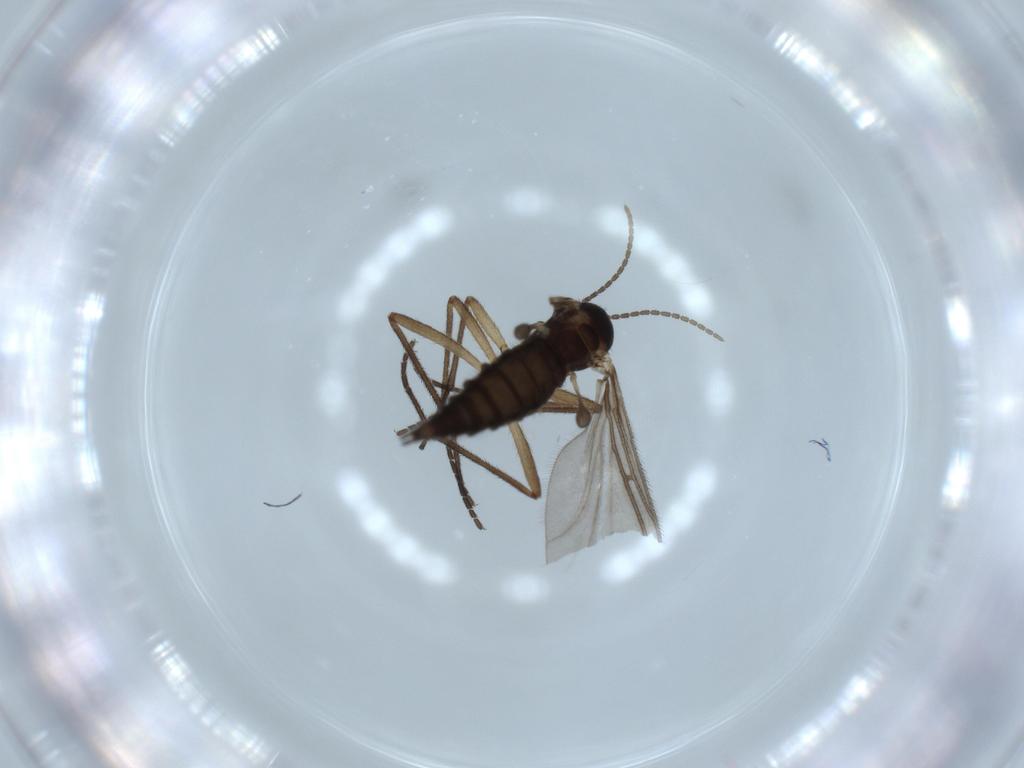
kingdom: Animalia
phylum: Arthropoda
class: Insecta
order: Diptera
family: Sciaridae
